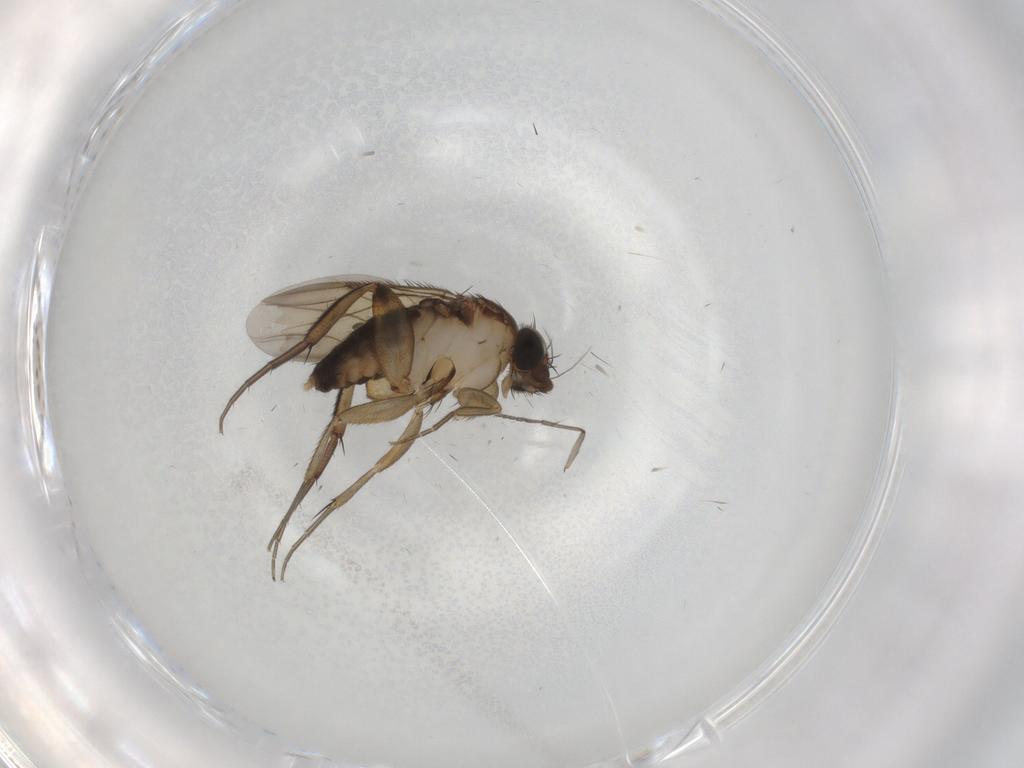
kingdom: Animalia
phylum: Arthropoda
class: Insecta
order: Diptera
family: Phoridae
